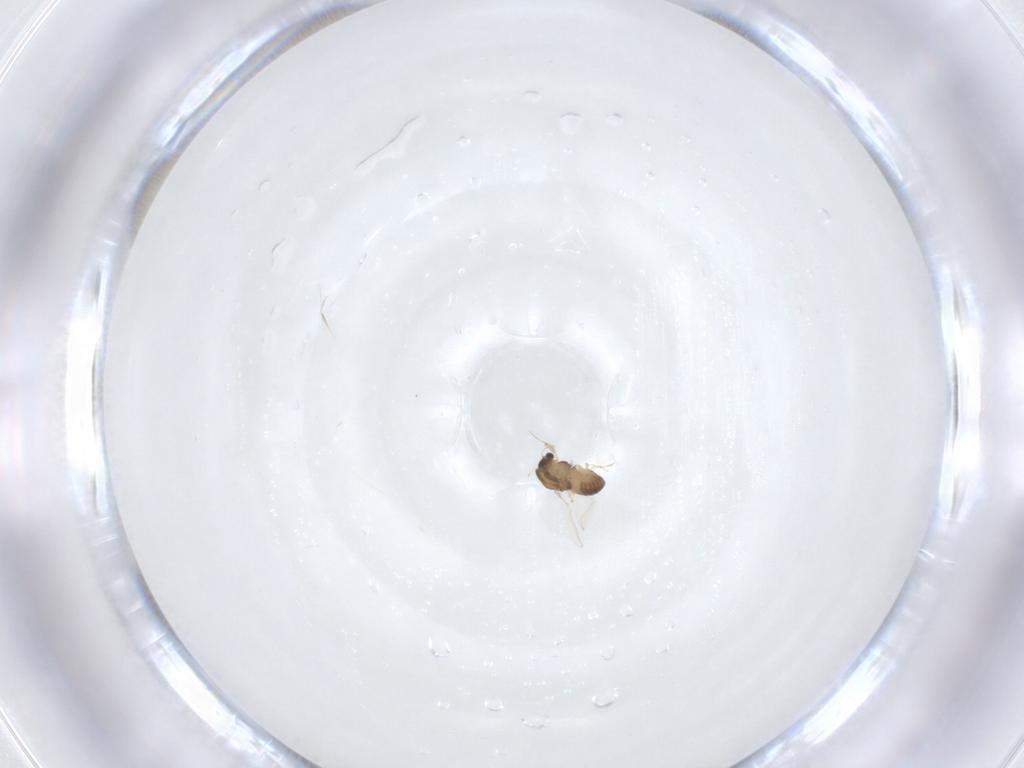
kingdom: Animalia
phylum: Arthropoda
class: Insecta
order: Diptera
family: Chironomidae
